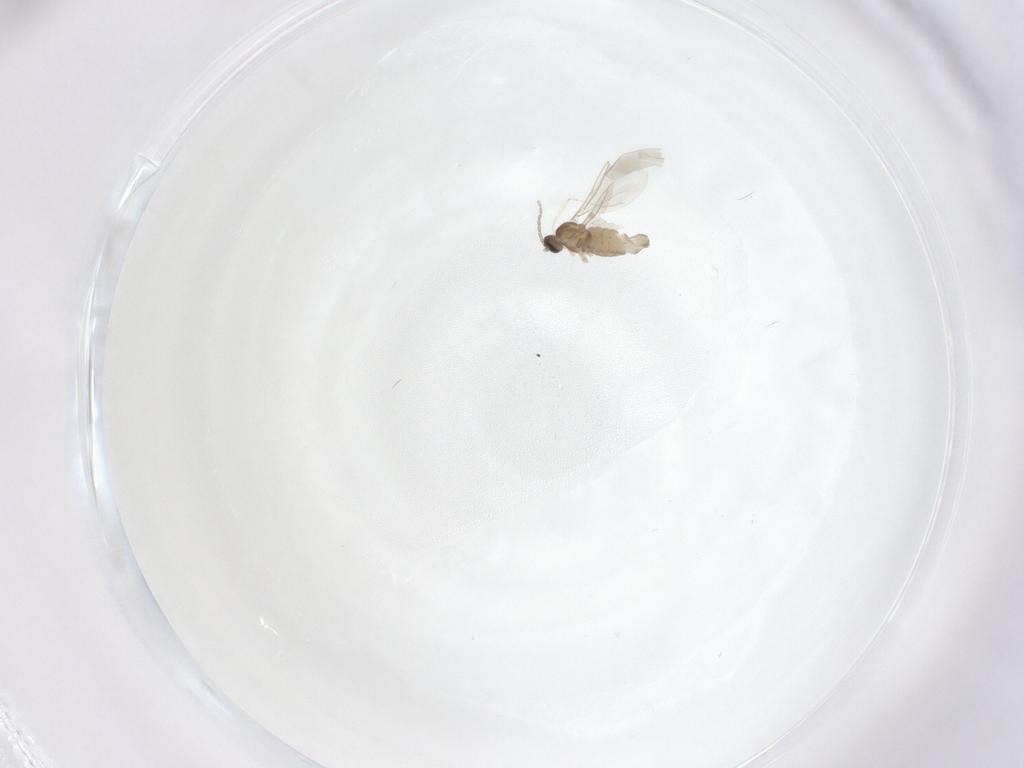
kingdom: Animalia
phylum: Arthropoda
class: Insecta
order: Diptera
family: Cecidomyiidae
